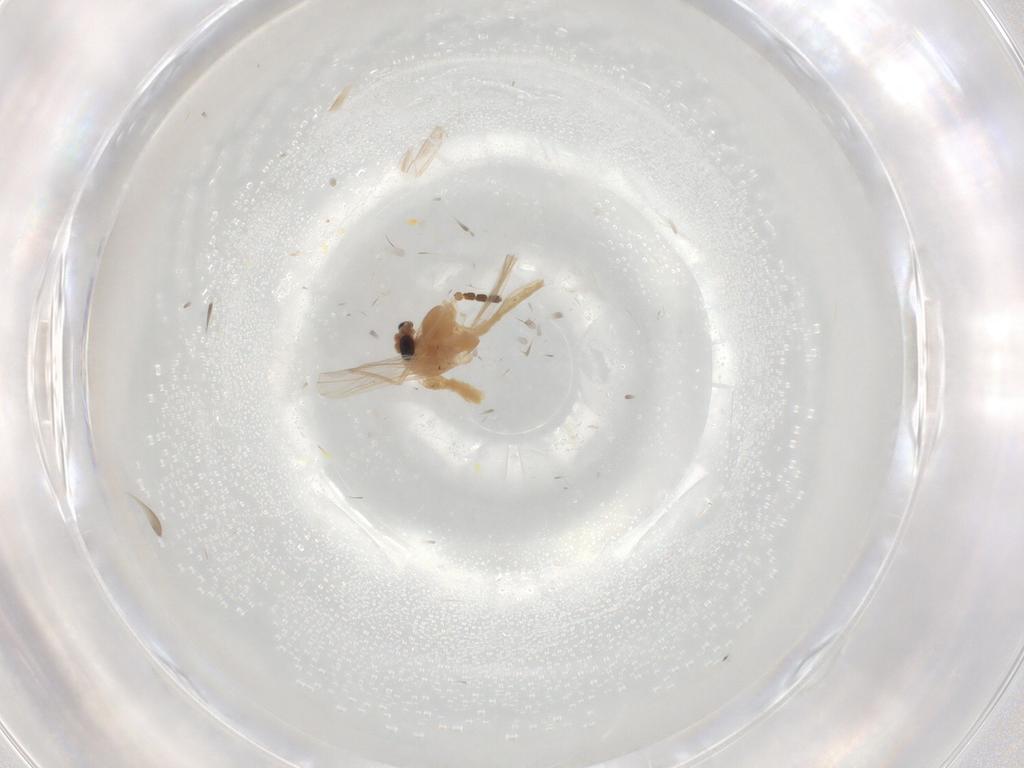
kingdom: Animalia
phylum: Arthropoda
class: Insecta
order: Diptera
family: Chironomidae
